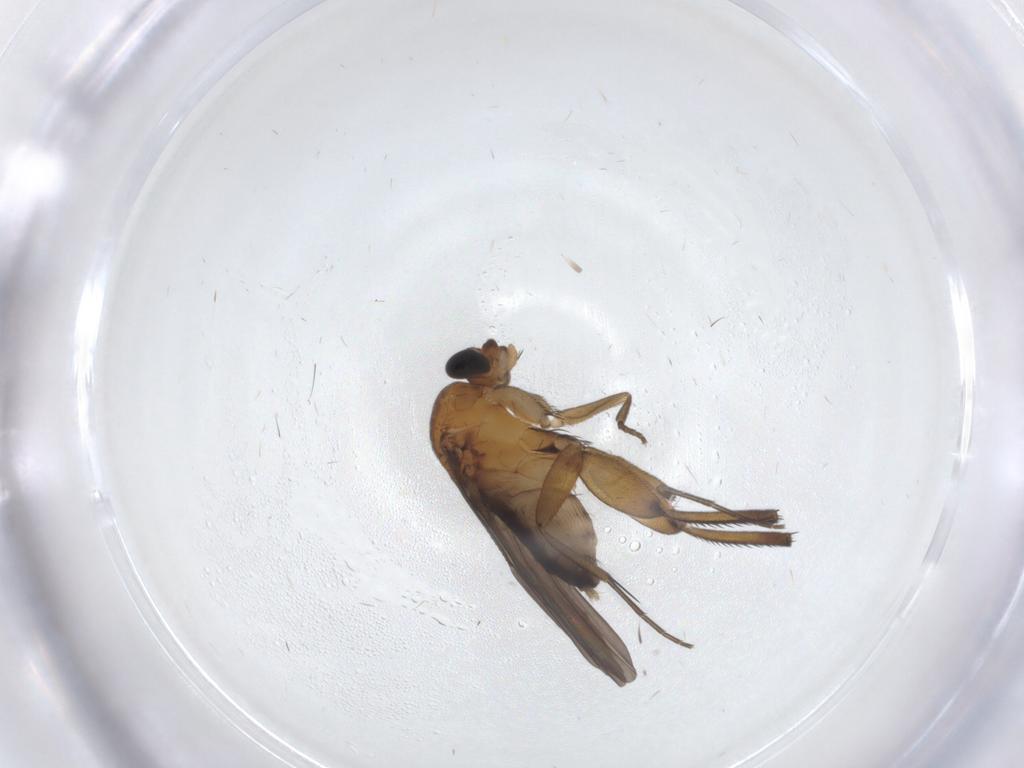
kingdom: Animalia
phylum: Arthropoda
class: Insecta
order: Diptera
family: Phoridae
